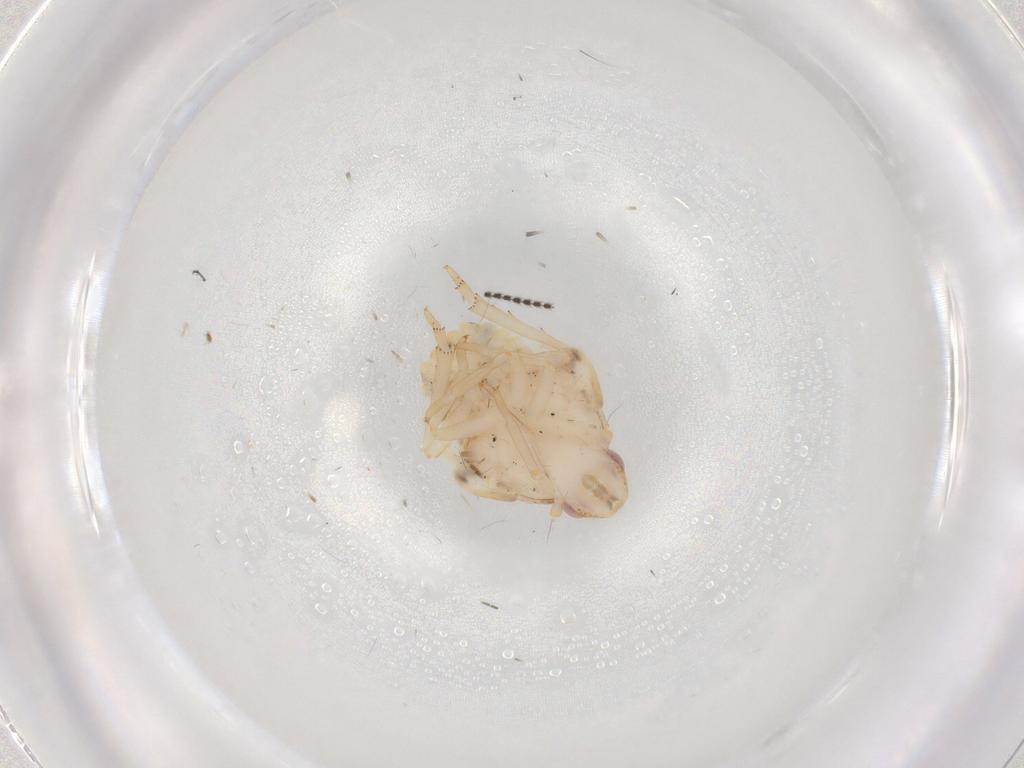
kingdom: Animalia
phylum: Arthropoda
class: Insecta
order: Hemiptera
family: Flatidae
